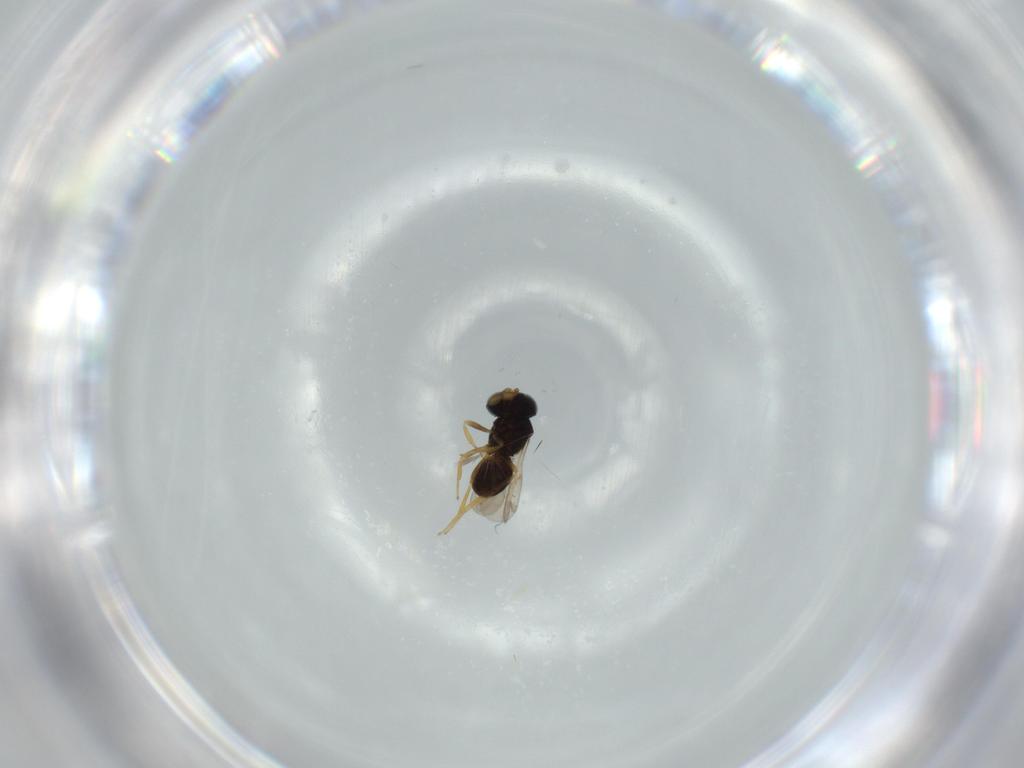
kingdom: Animalia
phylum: Arthropoda
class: Insecta
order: Hymenoptera
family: Scelionidae
